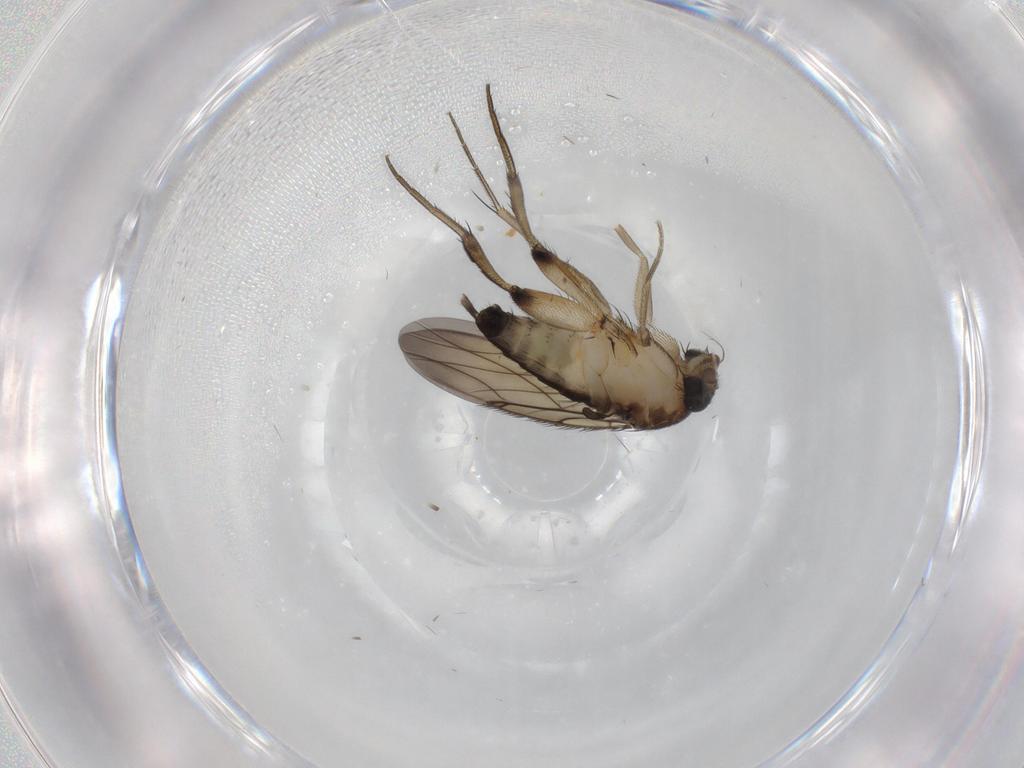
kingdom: Animalia
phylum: Arthropoda
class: Insecta
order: Diptera
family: Phoridae
